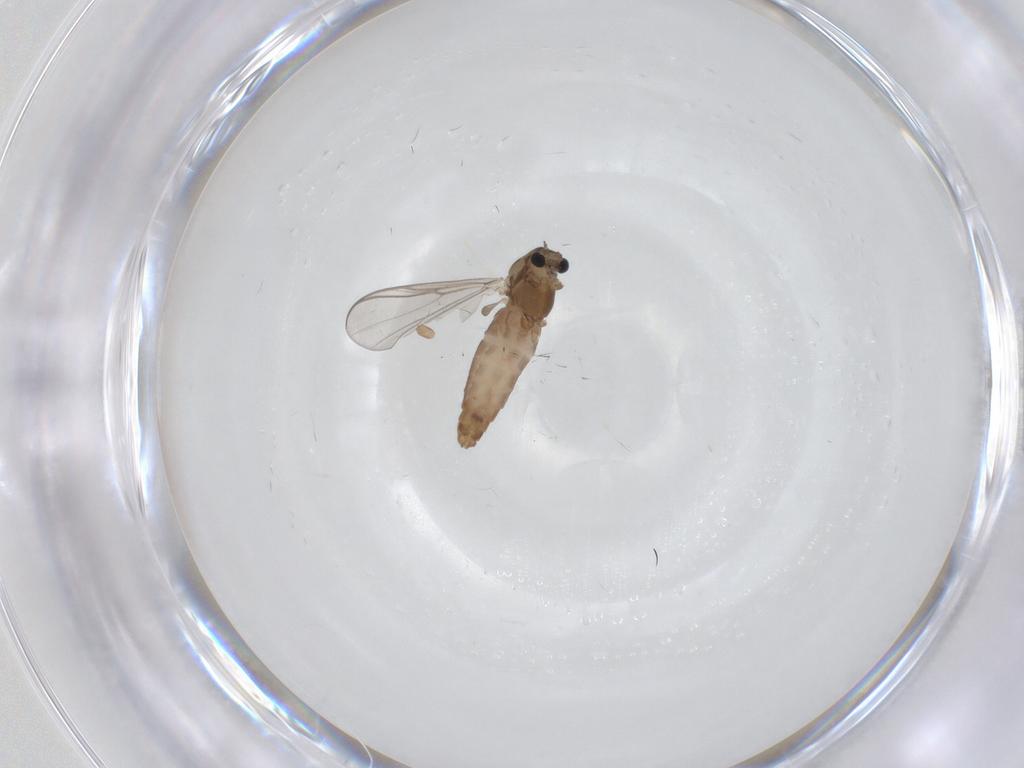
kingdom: Animalia
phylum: Arthropoda
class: Insecta
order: Diptera
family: Chironomidae
